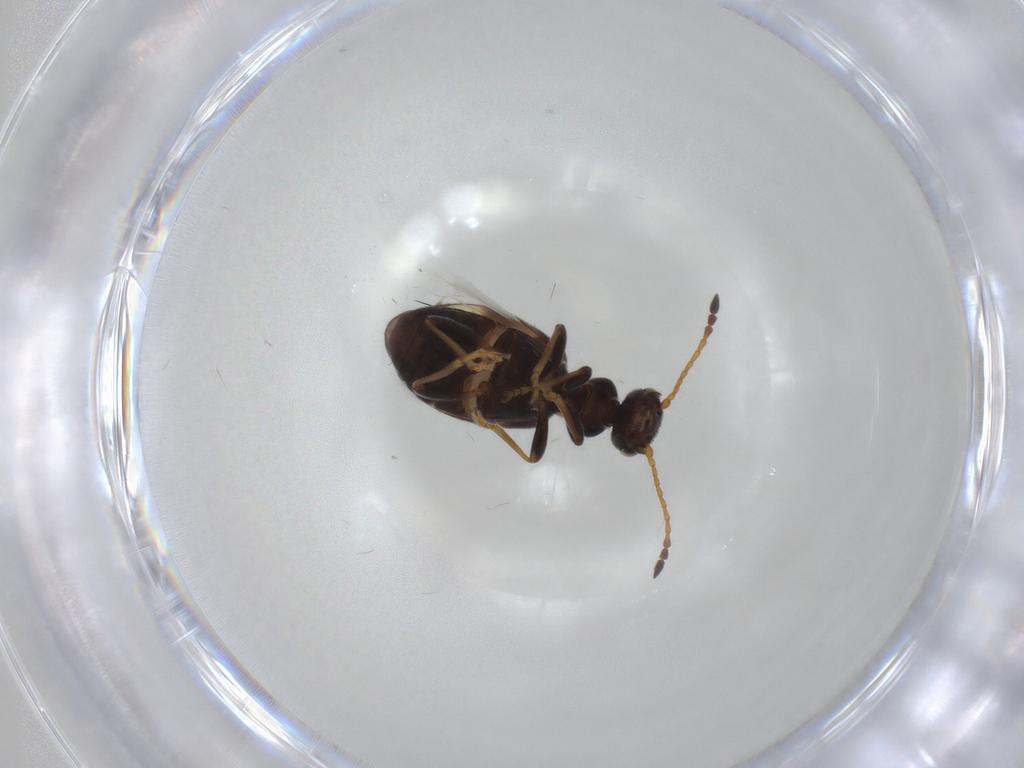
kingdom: Animalia
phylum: Arthropoda
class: Insecta
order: Coleoptera
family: Anthicidae
